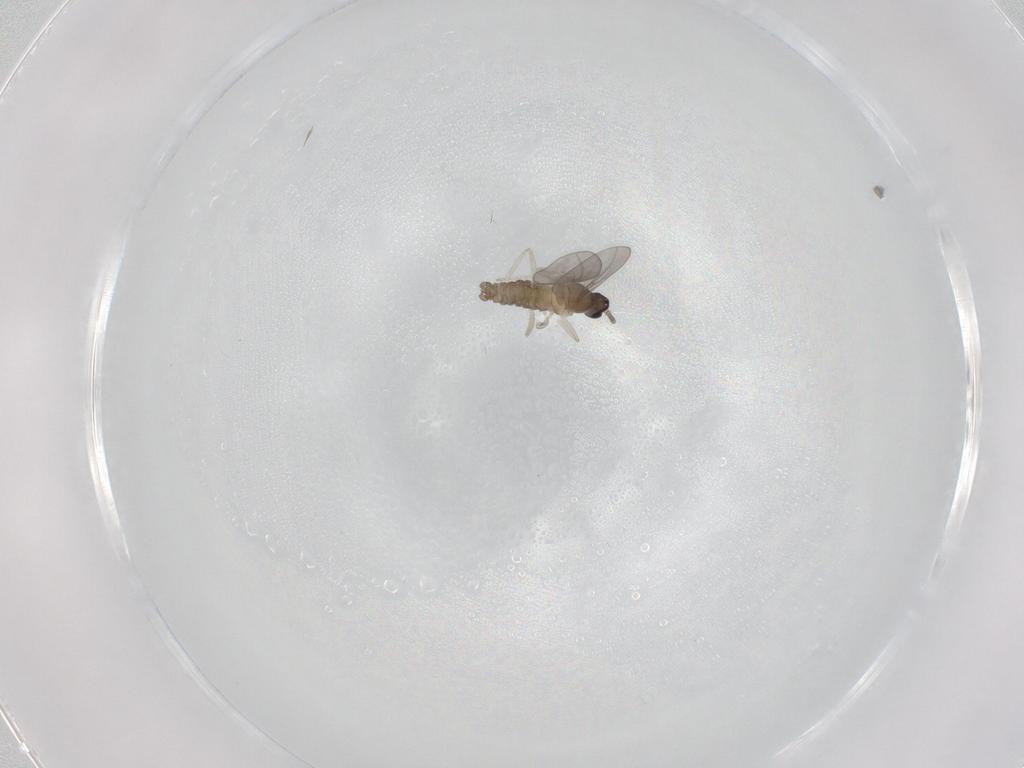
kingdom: Animalia
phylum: Arthropoda
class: Insecta
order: Diptera
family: Cecidomyiidae
